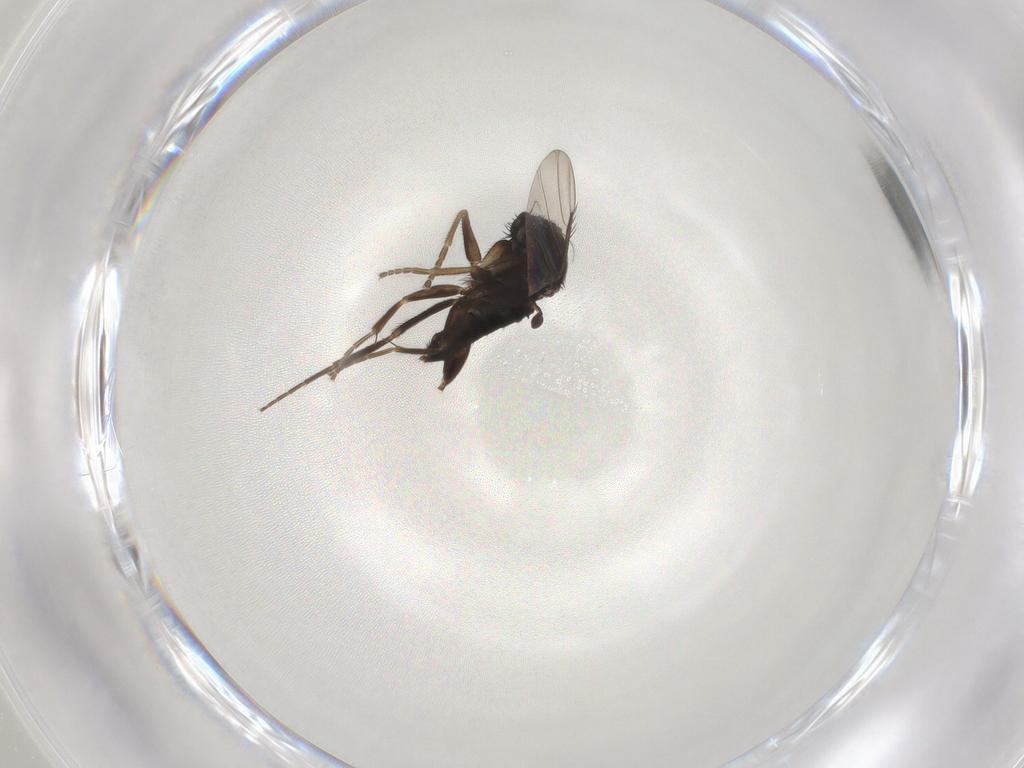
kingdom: Animalia
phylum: Arthropoda
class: Insecta
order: Diptera
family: Phoridae
